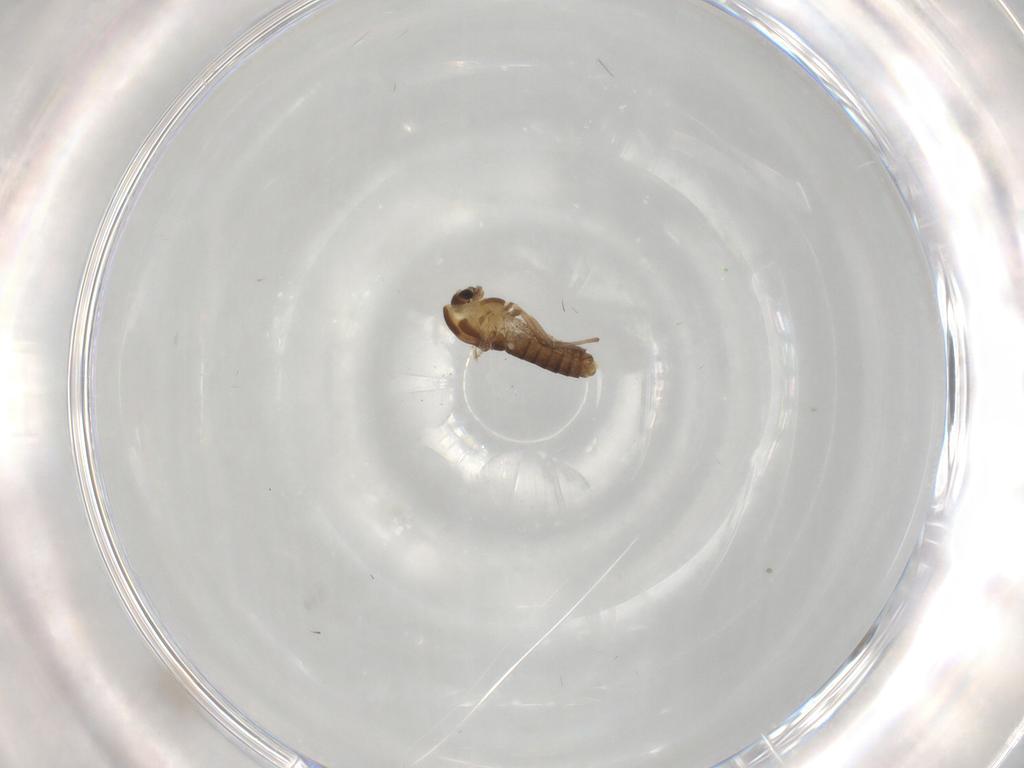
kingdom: Animalia
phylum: Arthropoda
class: Insecta
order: Diptera
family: Chironomidae
